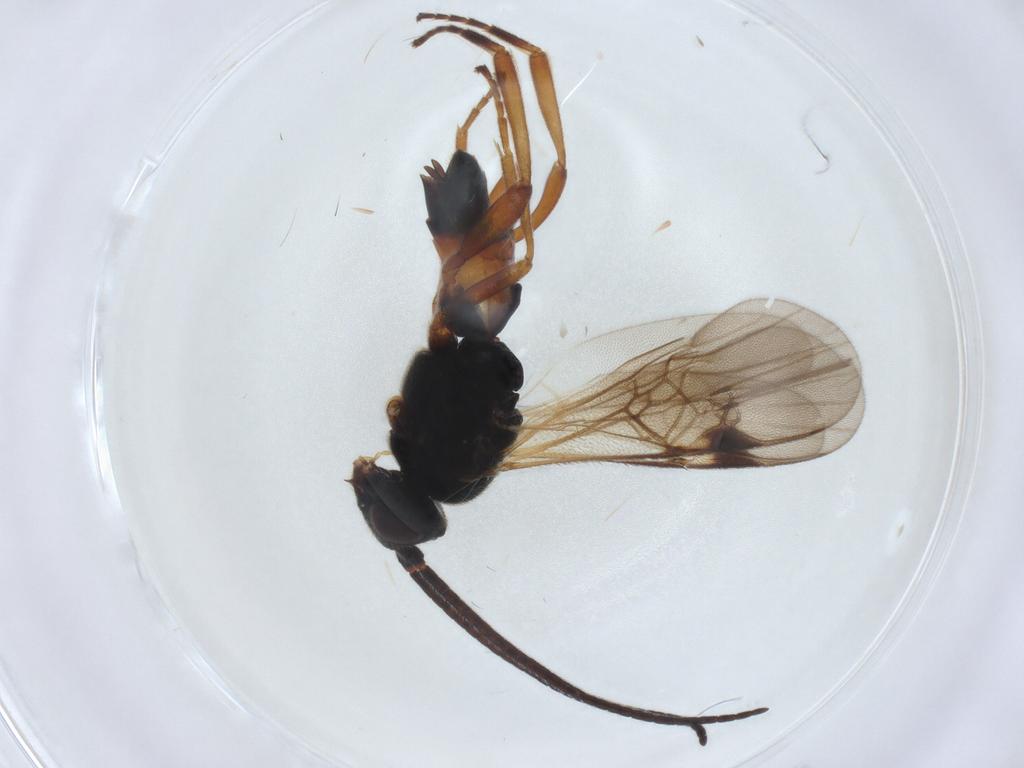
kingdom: Animalia
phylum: Arthropoda
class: Insecta
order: Hymenoptera
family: Braconidae
